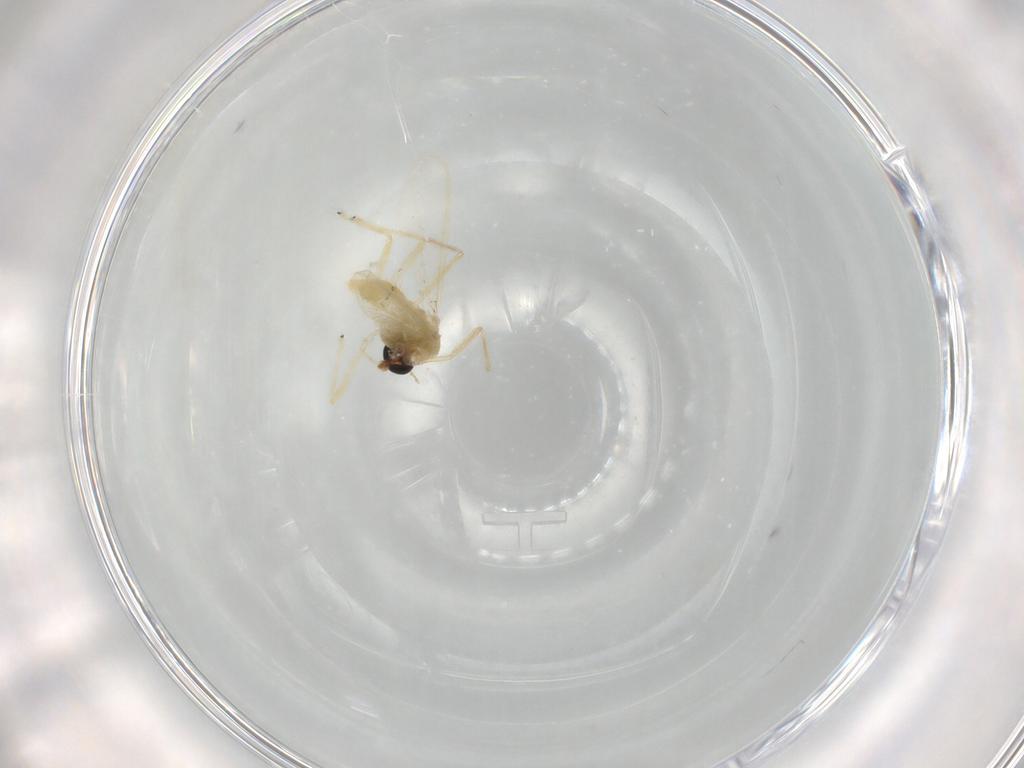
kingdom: Animalia
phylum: Arthropoda
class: Insecta
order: Diptera
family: Chironomidae
